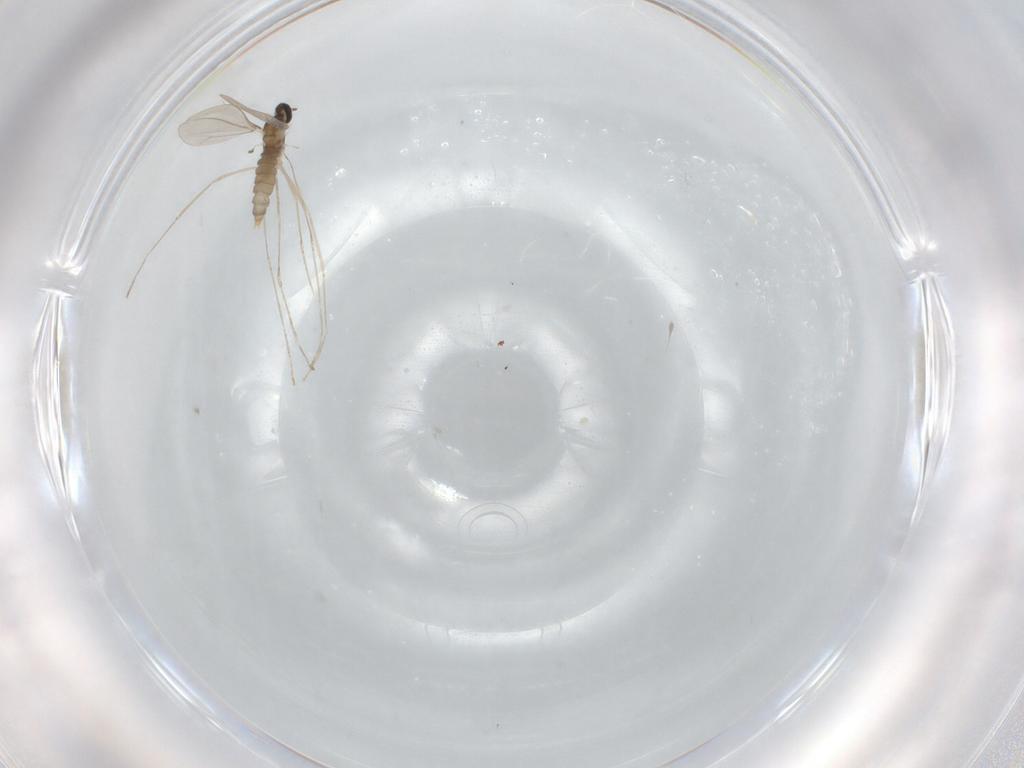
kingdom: Animalia
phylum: Arthropoda
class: Insecta
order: Diptera
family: Cecidomyiidae
